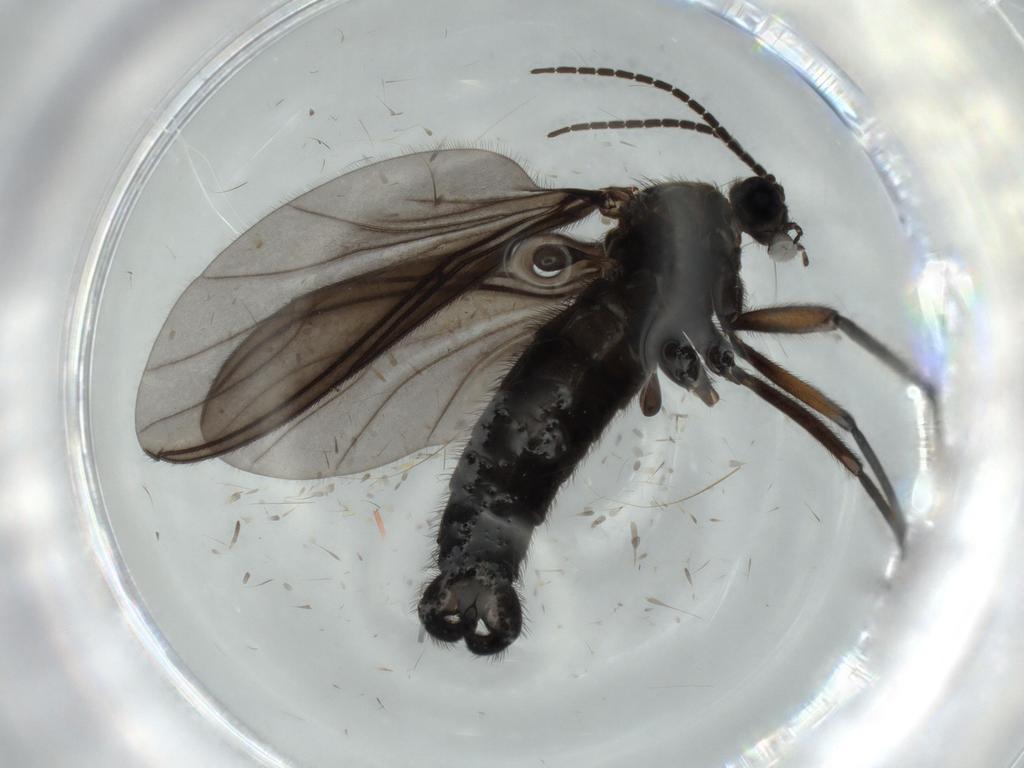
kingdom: Animalia
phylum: Arthropoda
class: Insecta
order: Diptera
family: Sciaridae
